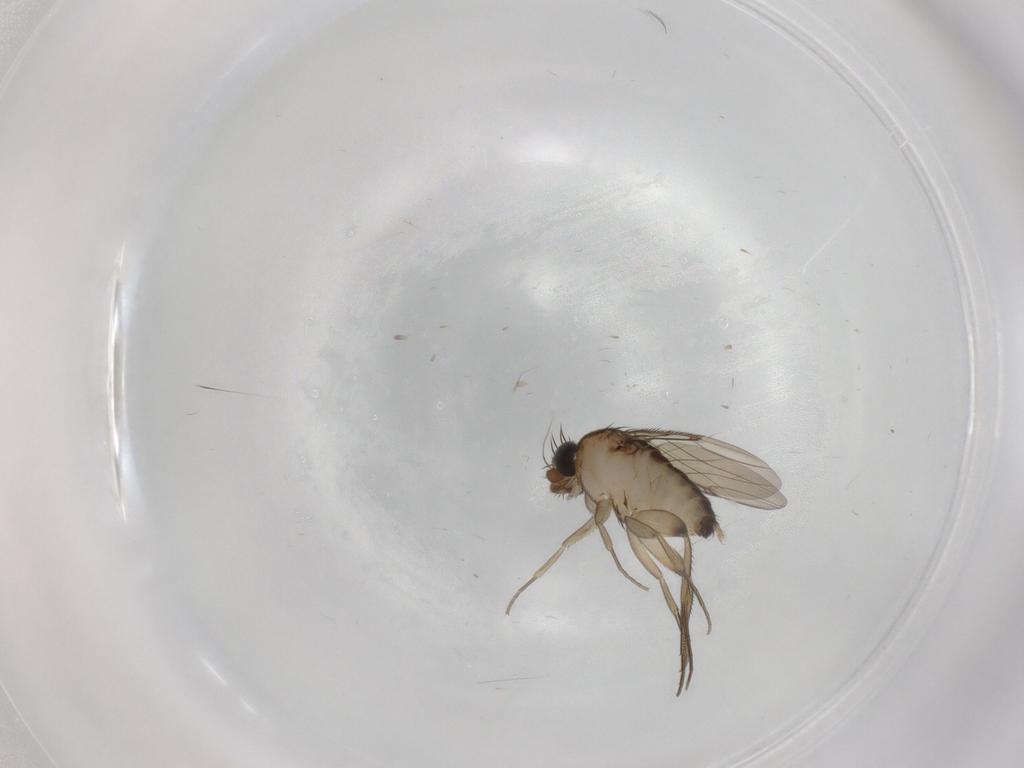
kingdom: Animalia
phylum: Arthropoda
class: Insecta
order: Diptera
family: Phoridae
